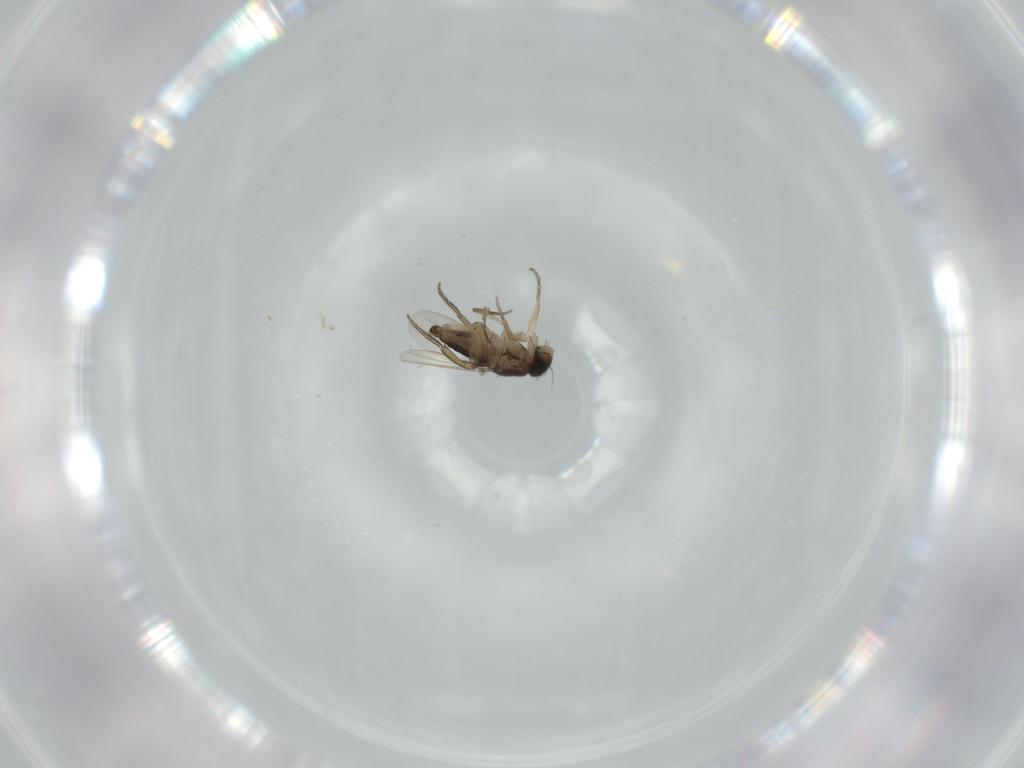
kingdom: Animalia
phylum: Arthropoda
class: Insecta
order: Diptera
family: Phoridae
